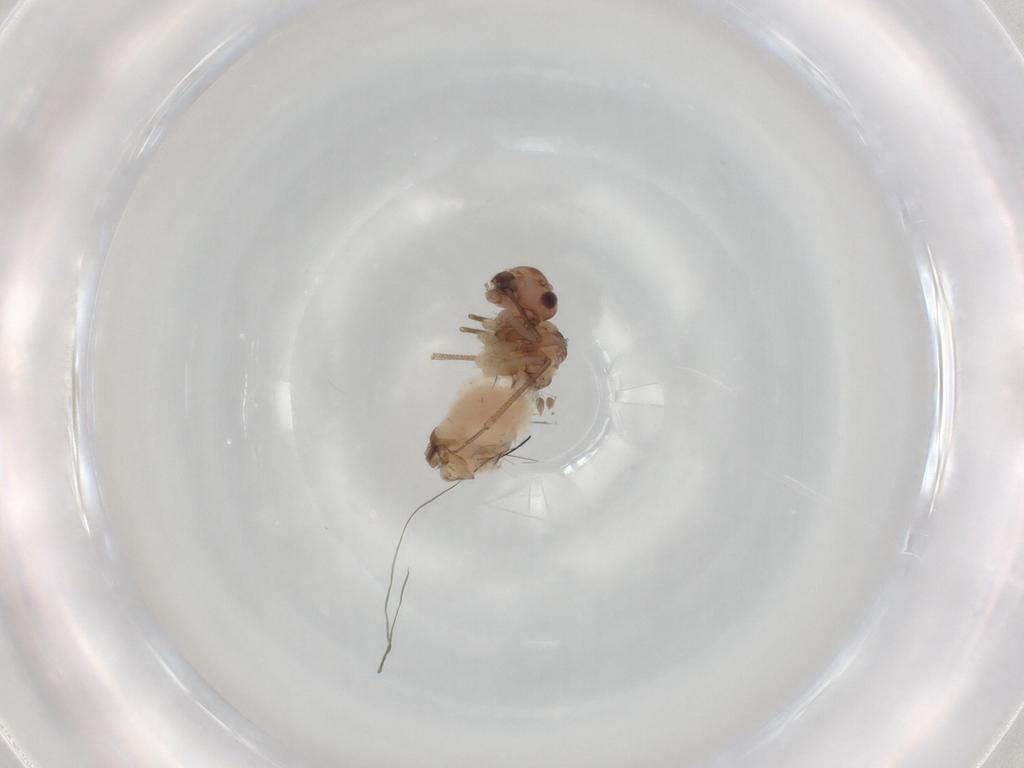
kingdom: Animalia
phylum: Arthropoda
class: Insecta
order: Psocodea
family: Peripsocidae
